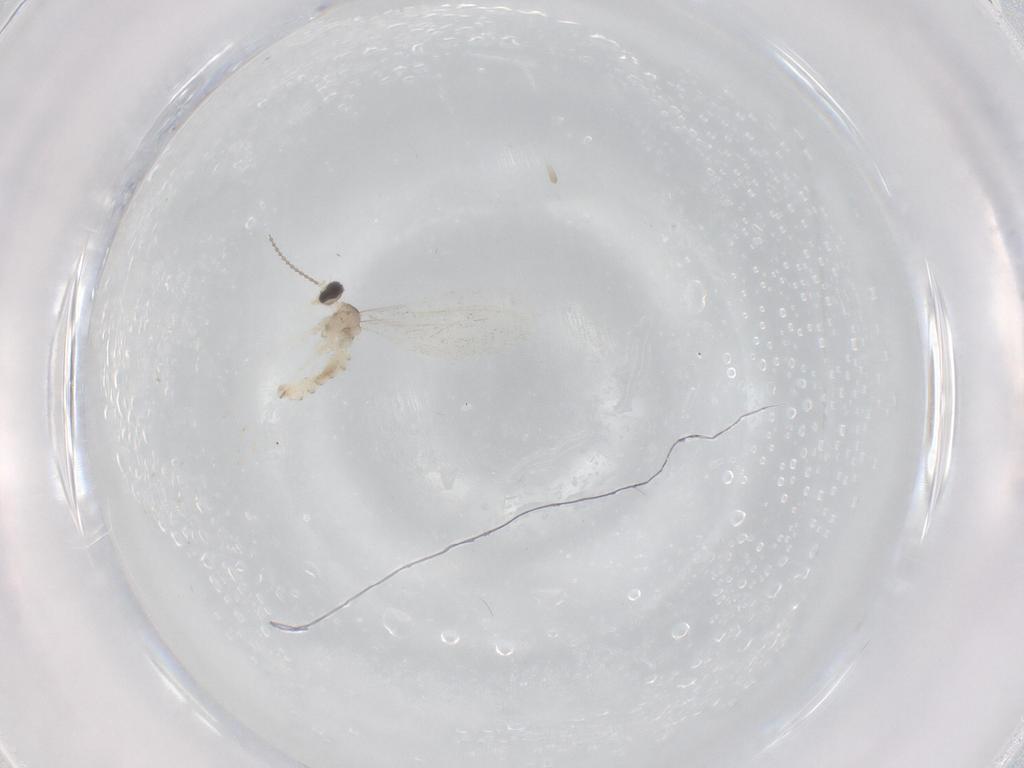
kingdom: Animalia
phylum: Arthropoda
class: Insecta
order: Diptera
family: Cecidomyiidae
